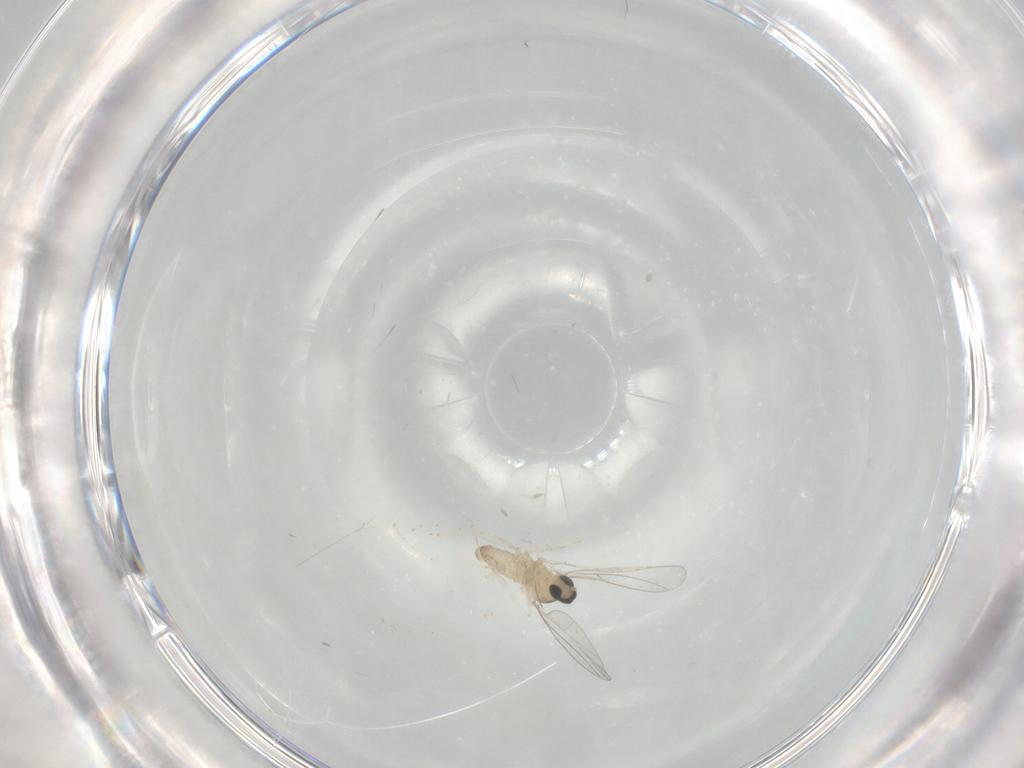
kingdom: Animalia
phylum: Arthropoda
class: Insecta
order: Diptera
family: Cecidomyiidae
